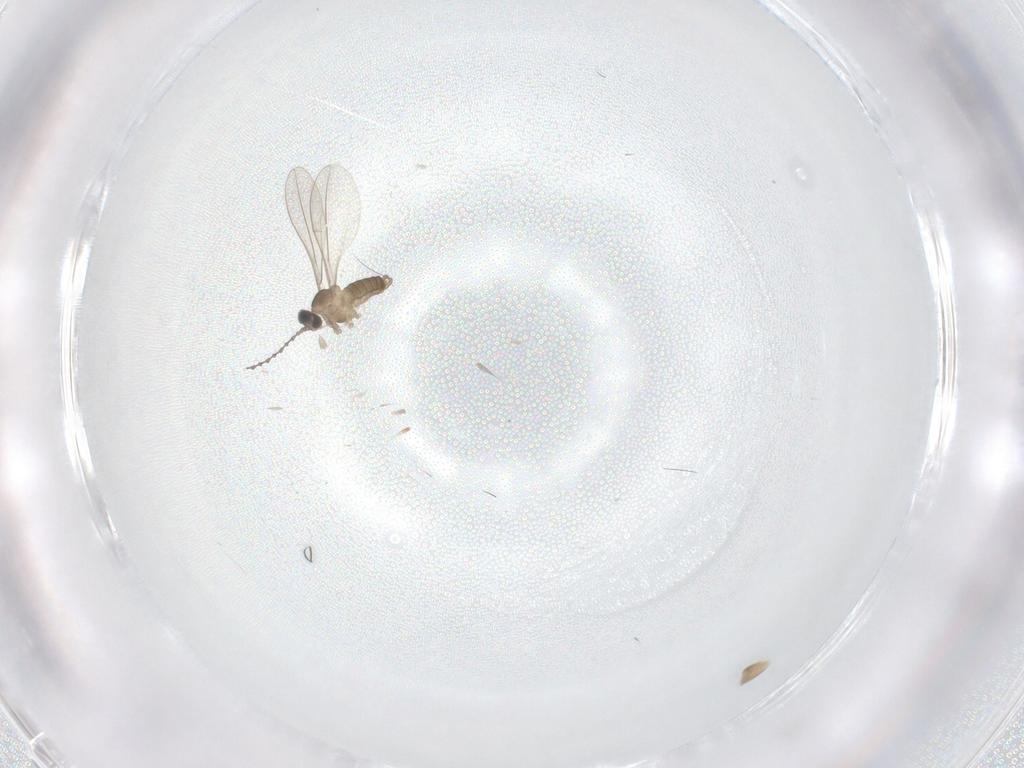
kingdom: Animalia
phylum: Arthropoda
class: Insecta
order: Diptera
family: Cecidomyiidae
